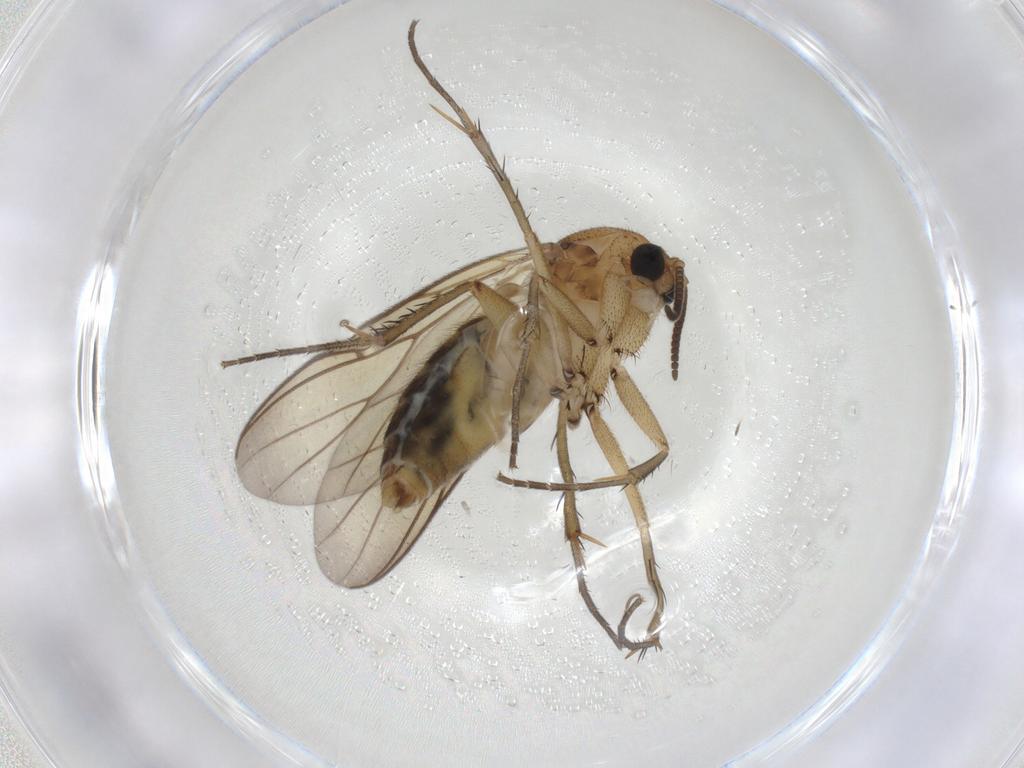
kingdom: Animalia
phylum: Arthropoda
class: Insecta
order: Diptera
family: Mycetophilidae
